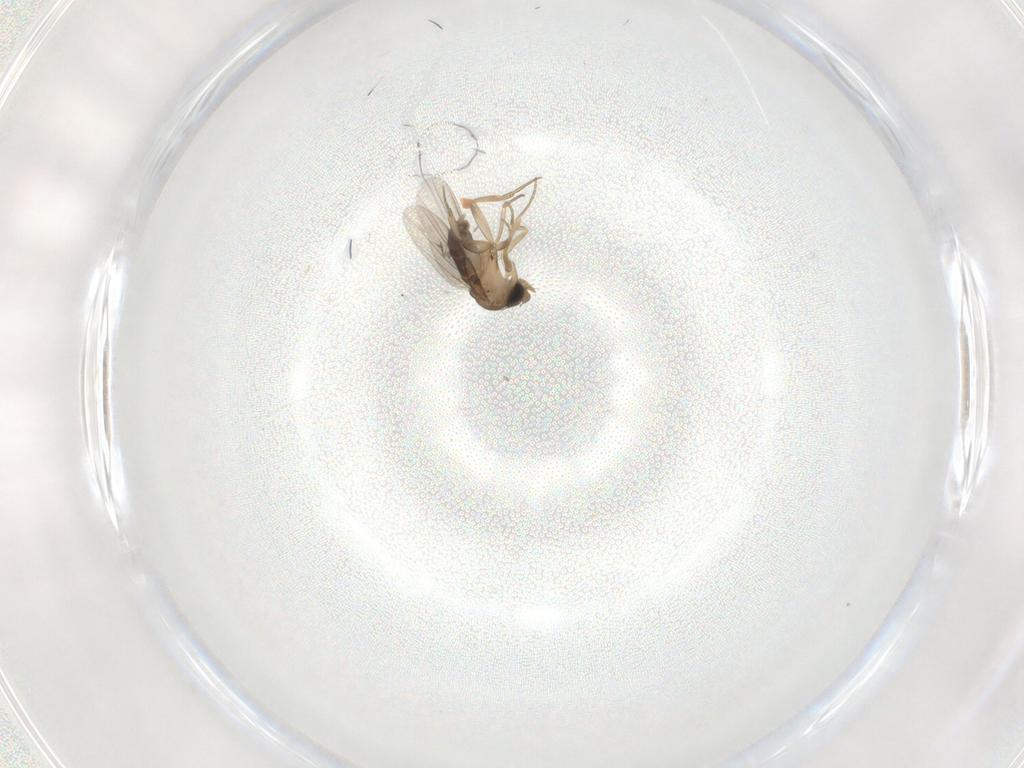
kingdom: Animalia
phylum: Arthropoda
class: Insecta
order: Diptera
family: Phoridae
